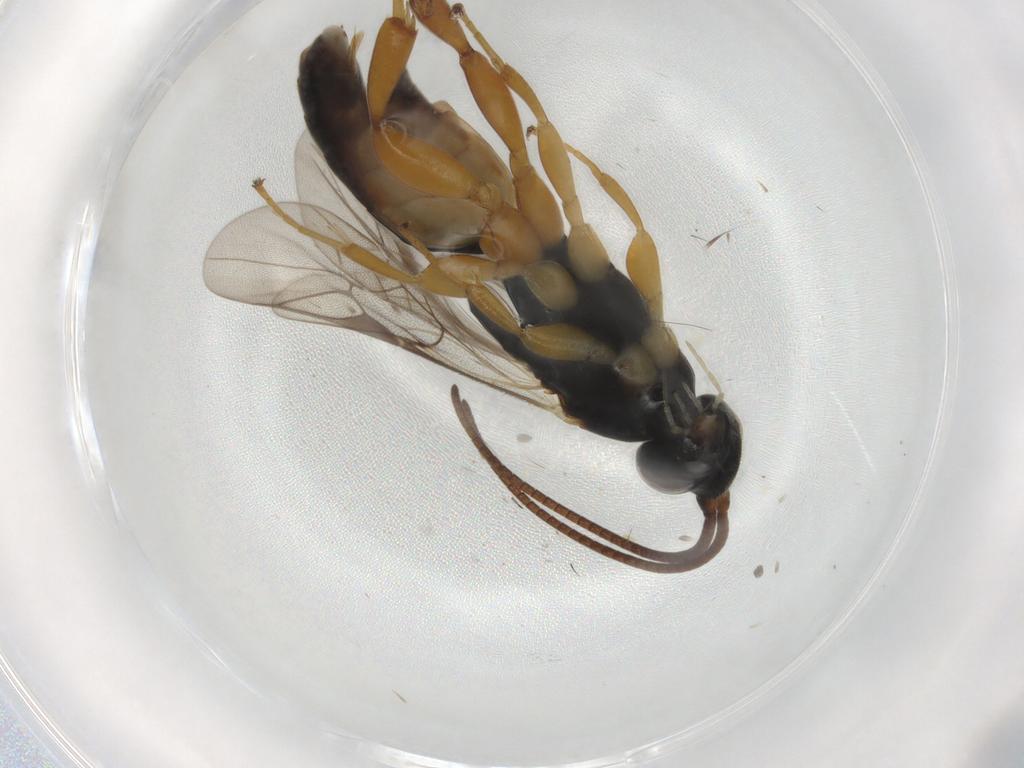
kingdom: Animalia
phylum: Arthropoda
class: Insecta
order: Hymenoptera
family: Ichneumonidae
